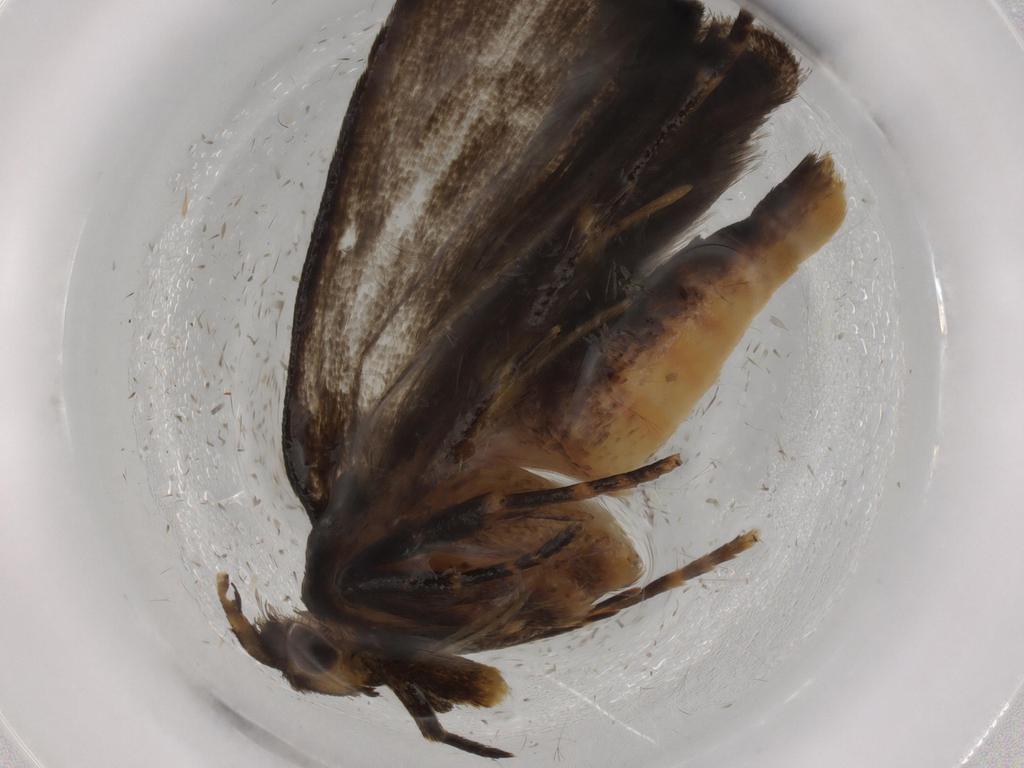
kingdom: Animalia
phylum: Arthropoda
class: Insecta
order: Lepidoptera
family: Autostichidae
